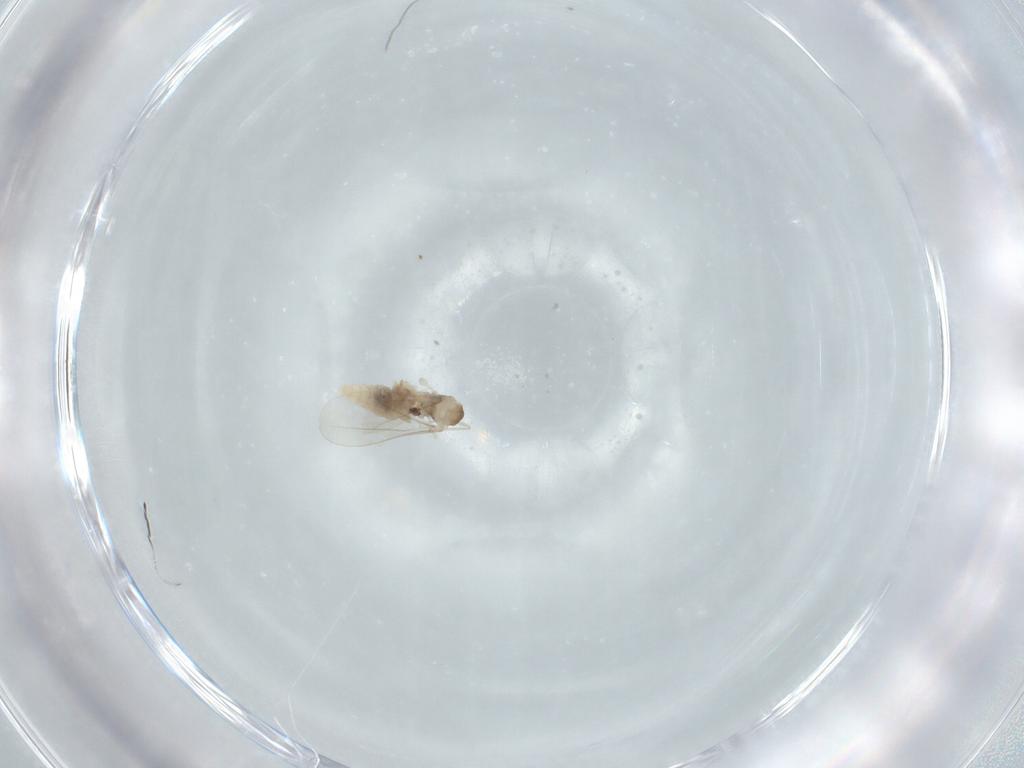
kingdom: Animalia
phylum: Arthropoda
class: Insecta
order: Diptera
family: Cecidomyiidae
